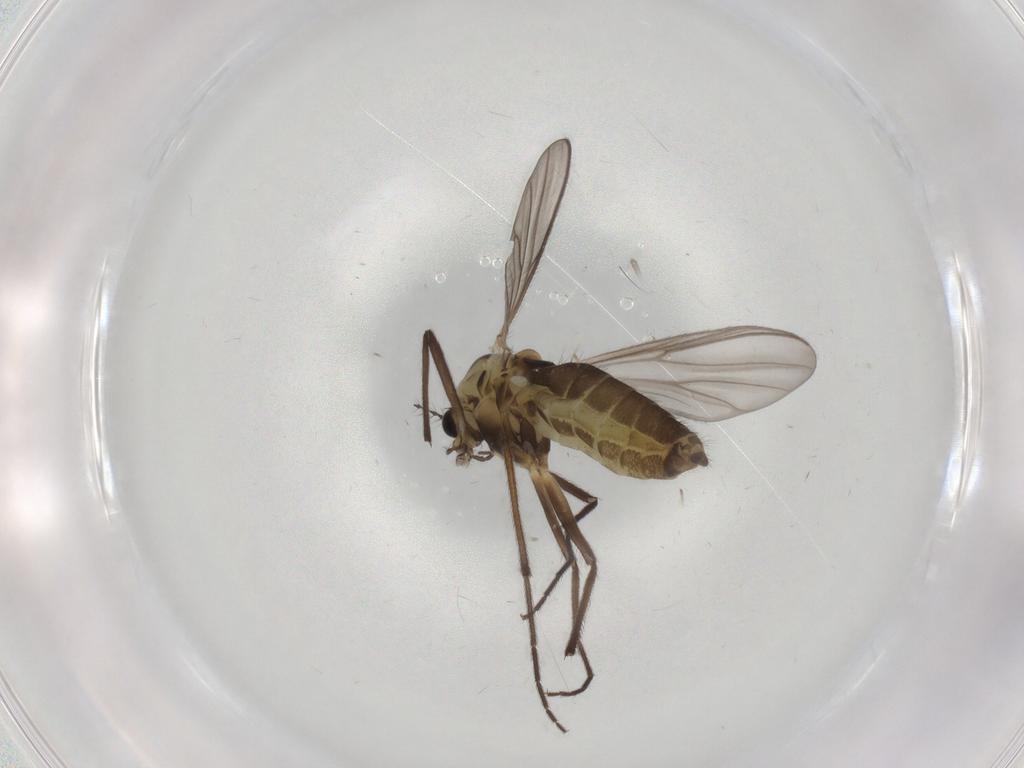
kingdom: Animalia
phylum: Arthropoda
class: Insecta
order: Diptera
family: Chironomidae
